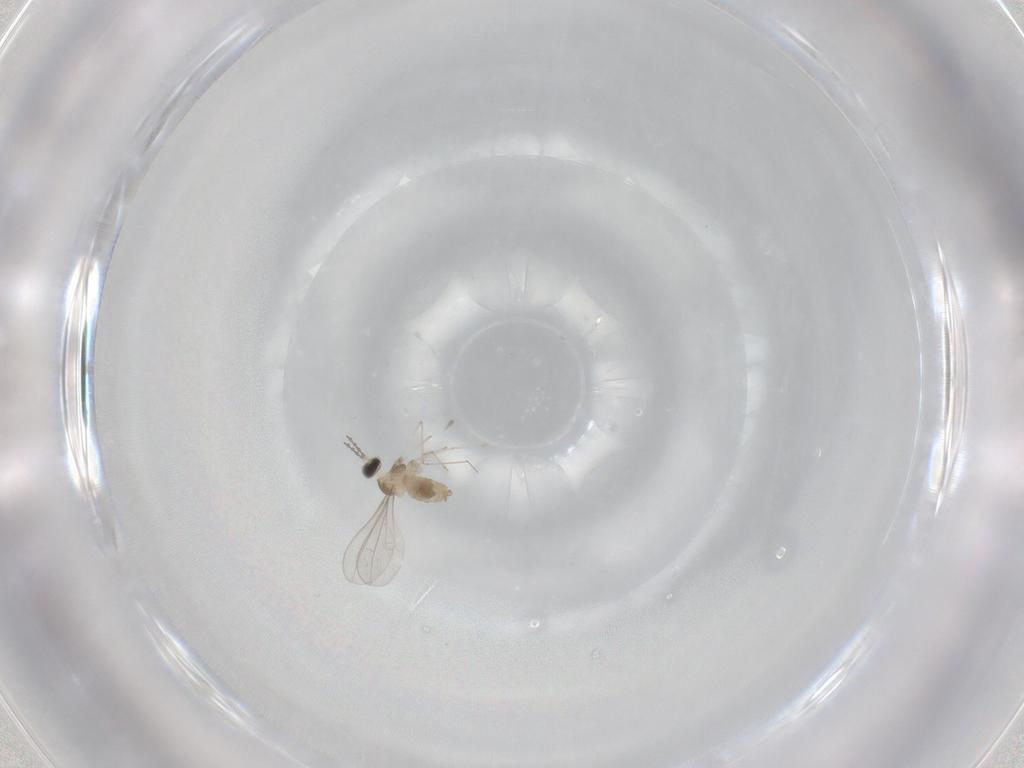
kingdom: Animalia
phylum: Arthropoda
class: Insecta
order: Diptera
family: Cecidomyiidae
